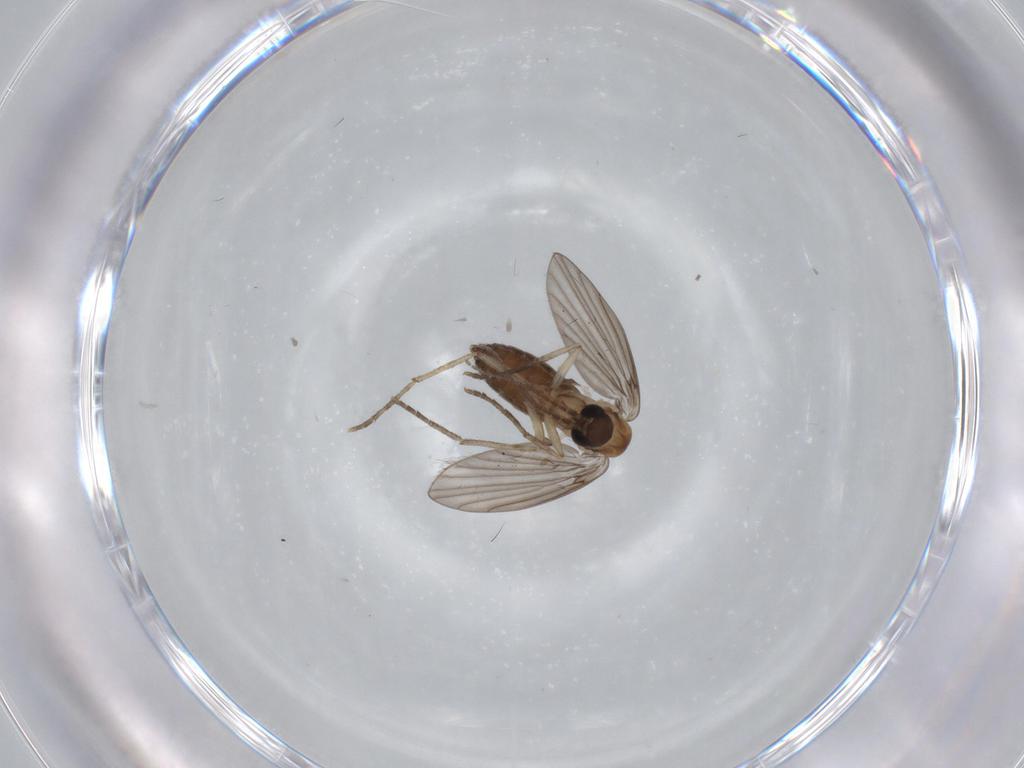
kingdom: Animalia
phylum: Arthropoda
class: Insecta
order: Diptera
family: Psychodidae
